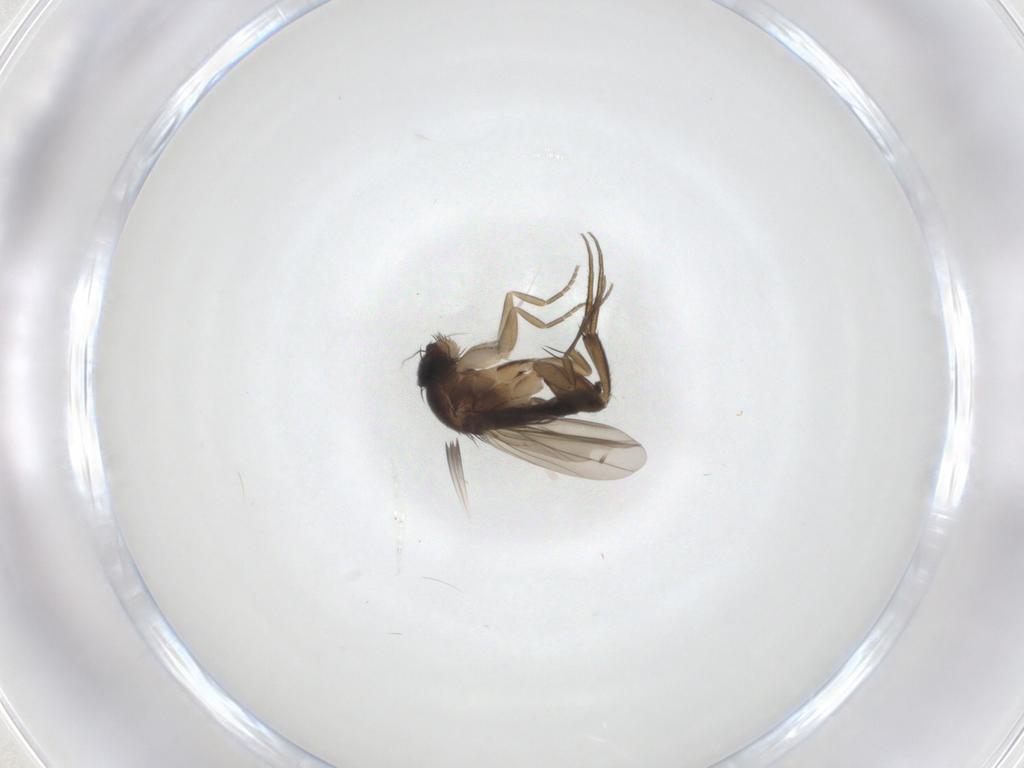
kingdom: Animalia
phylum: Arthropoda
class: Insecta
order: Diptera
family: Phoridae
